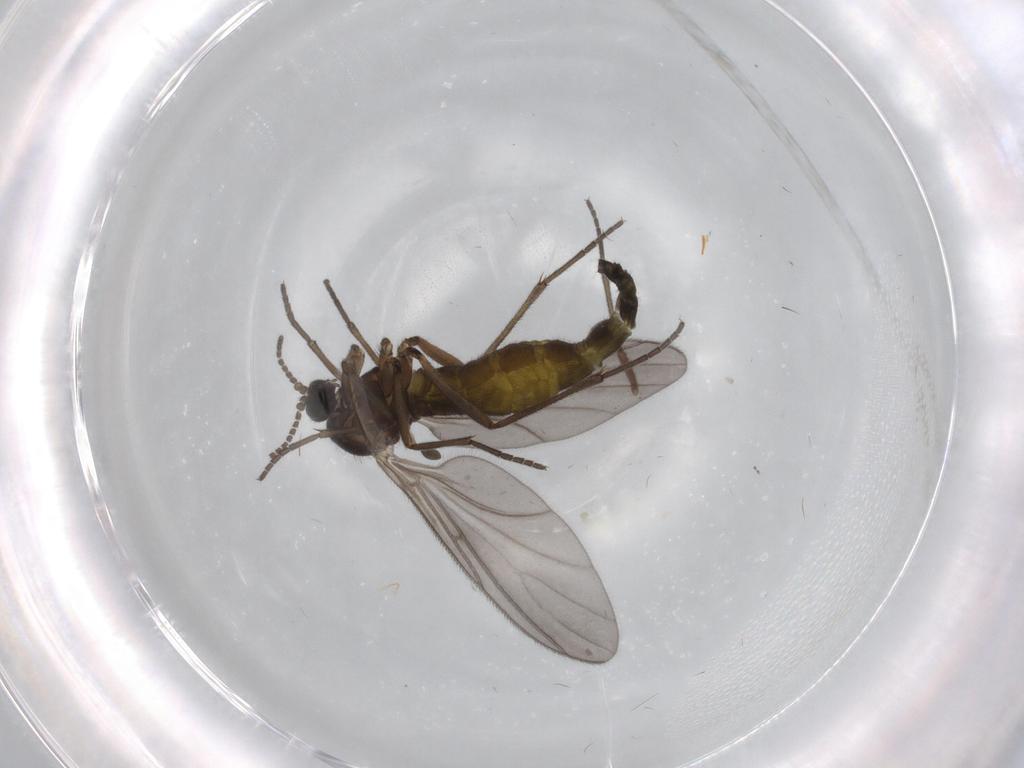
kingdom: Animalia
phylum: Arthropoda
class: Insecta
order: Diptera
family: Sciaridae
